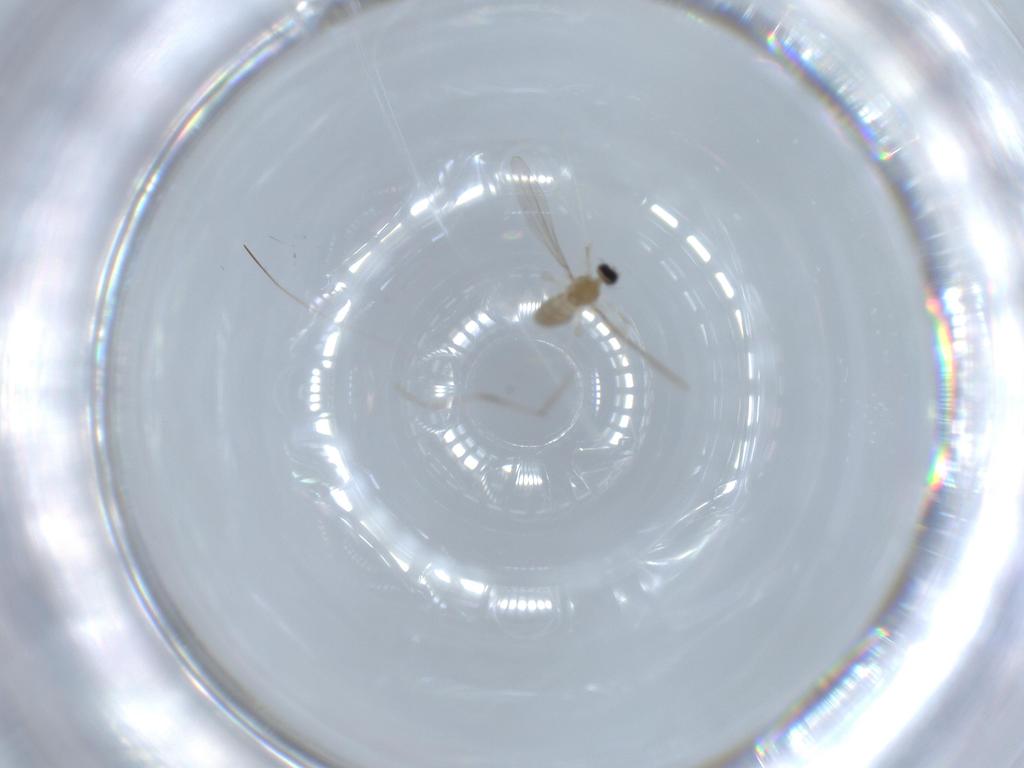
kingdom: Animalia
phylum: Arthropoda
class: Insecta
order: Diptera
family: Cecidomyiidae
